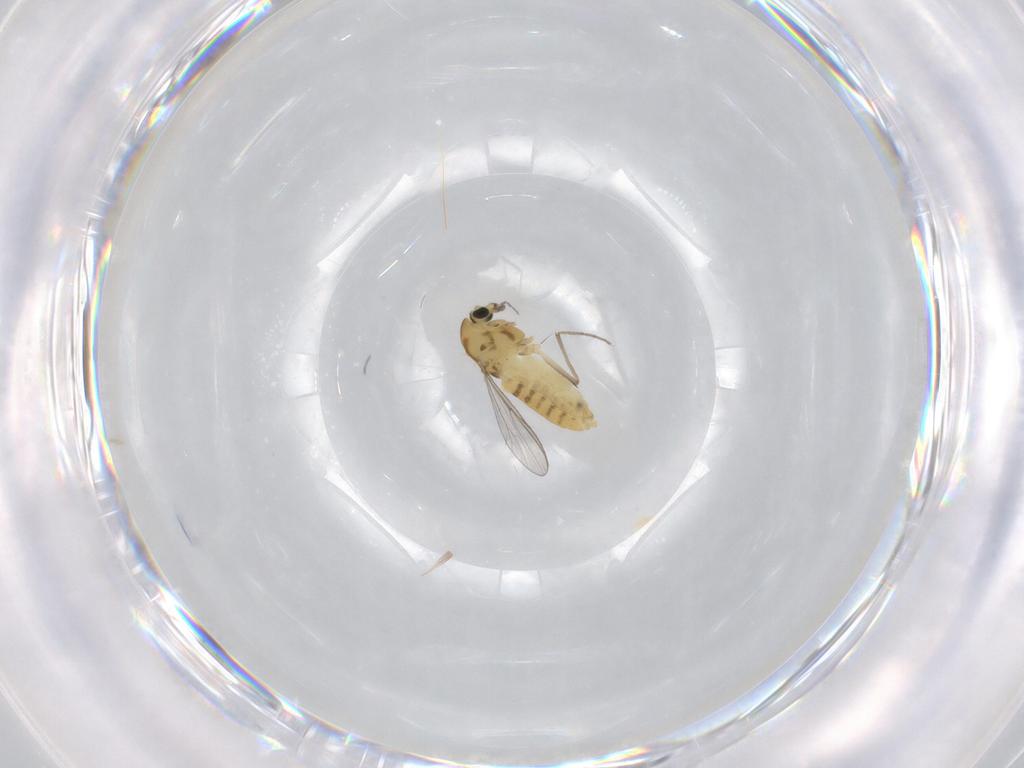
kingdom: Animalia
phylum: Arthropoda
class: Insecta
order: Diptera
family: Chironomidae
